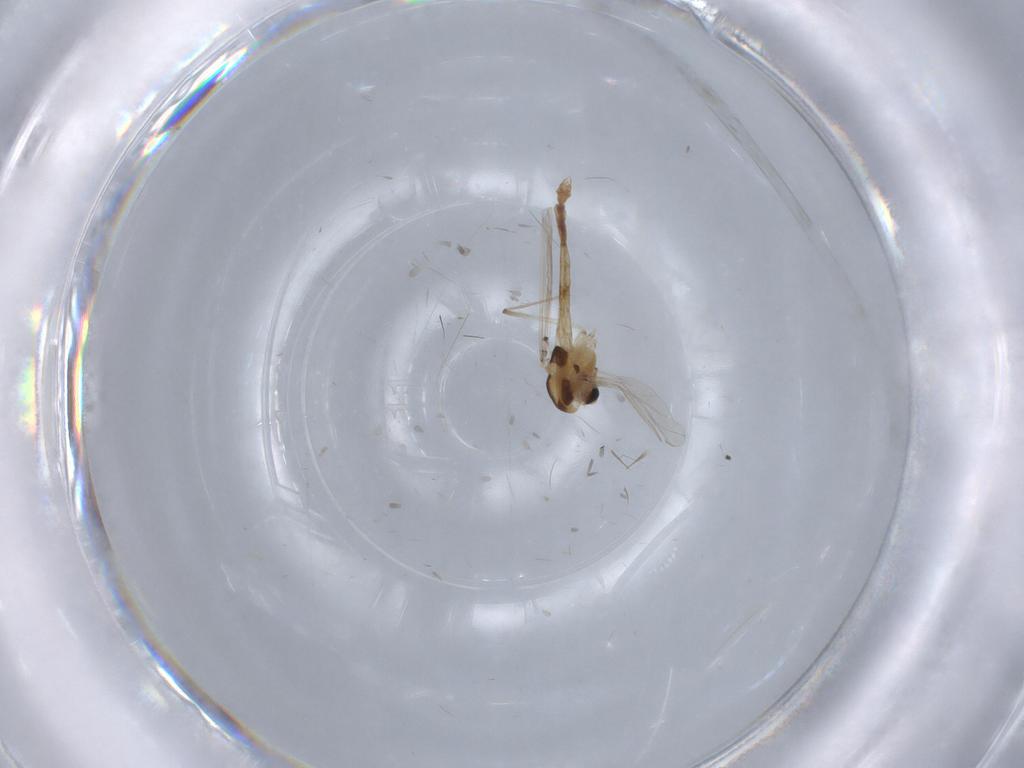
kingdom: Animalia
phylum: Arthropoda
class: Insecta
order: Diptera
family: Chironomidae
